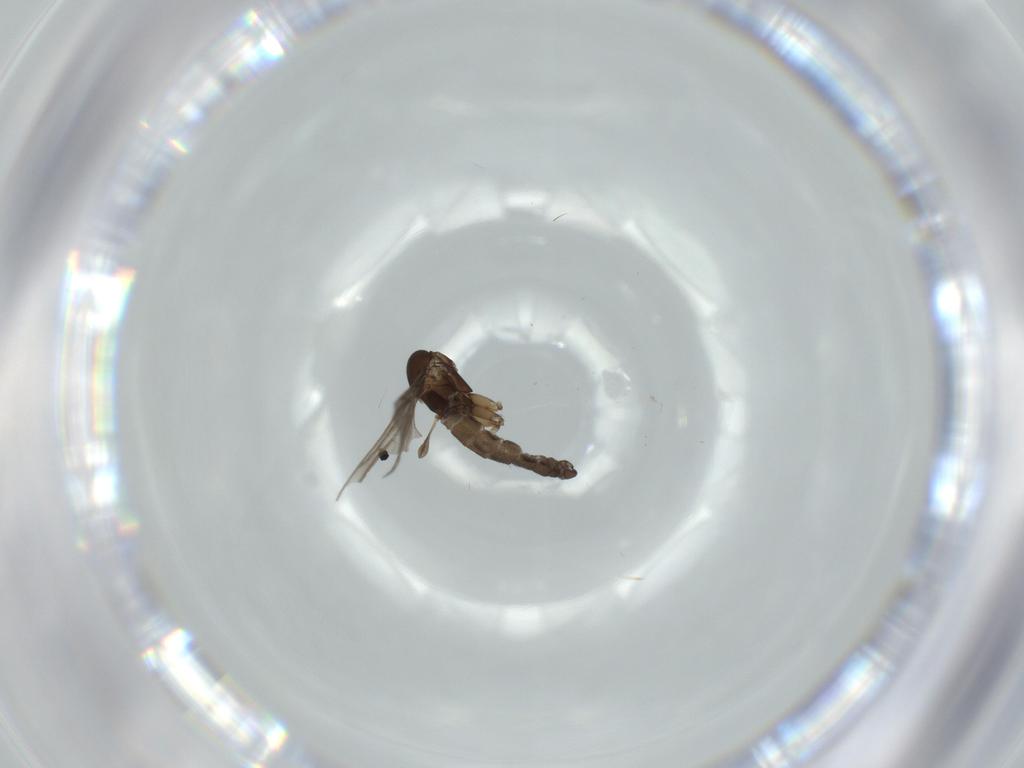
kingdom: Animalia
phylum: Arthropoda
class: Insecta
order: Diptera
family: Sciaridae
